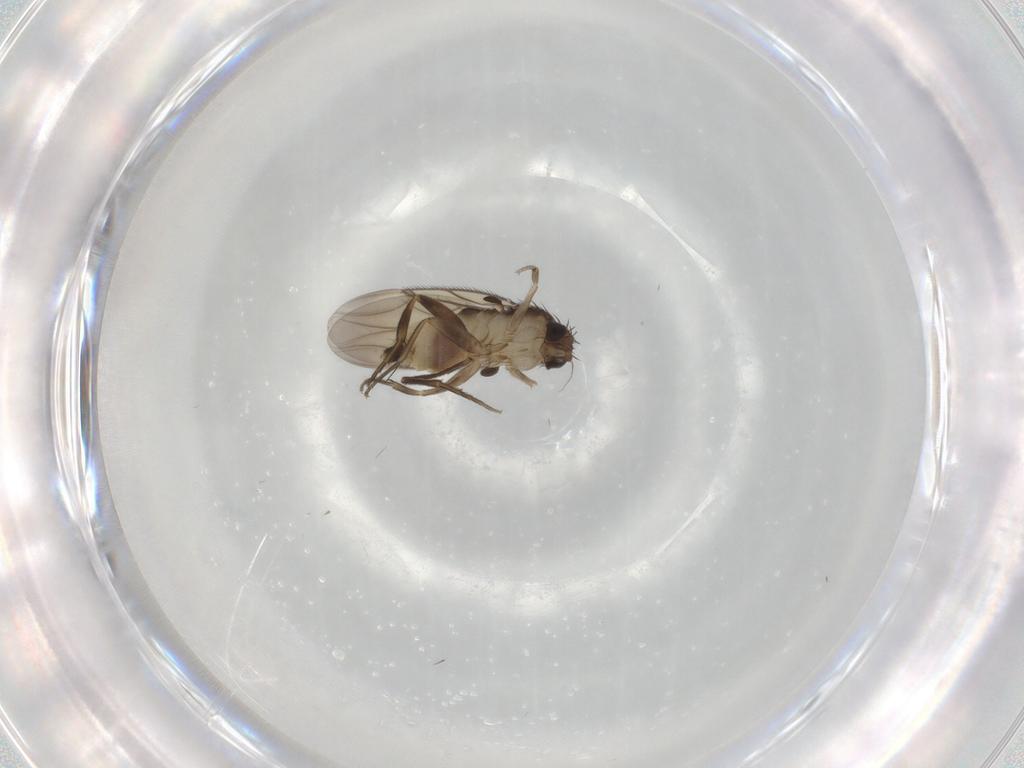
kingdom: Animalia
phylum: Arthropoda
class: Insecta
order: Diptera
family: Phoridae
